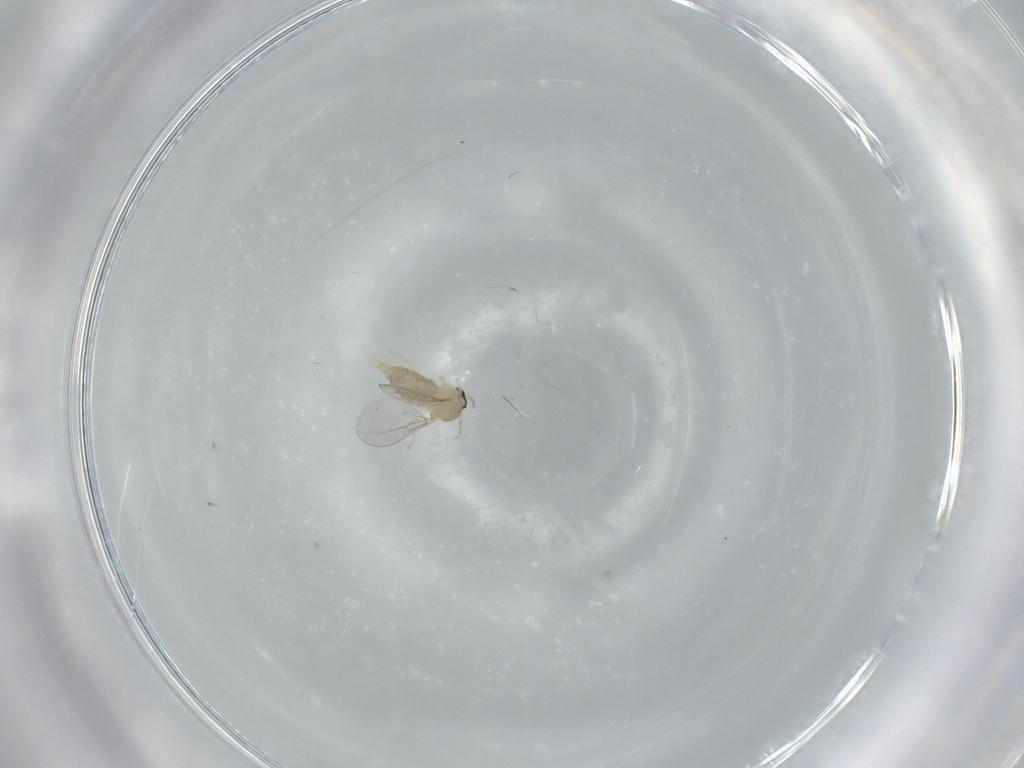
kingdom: Animalia
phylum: Arthropoda
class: Insecta
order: Diptera
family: Cecidomyiidae
